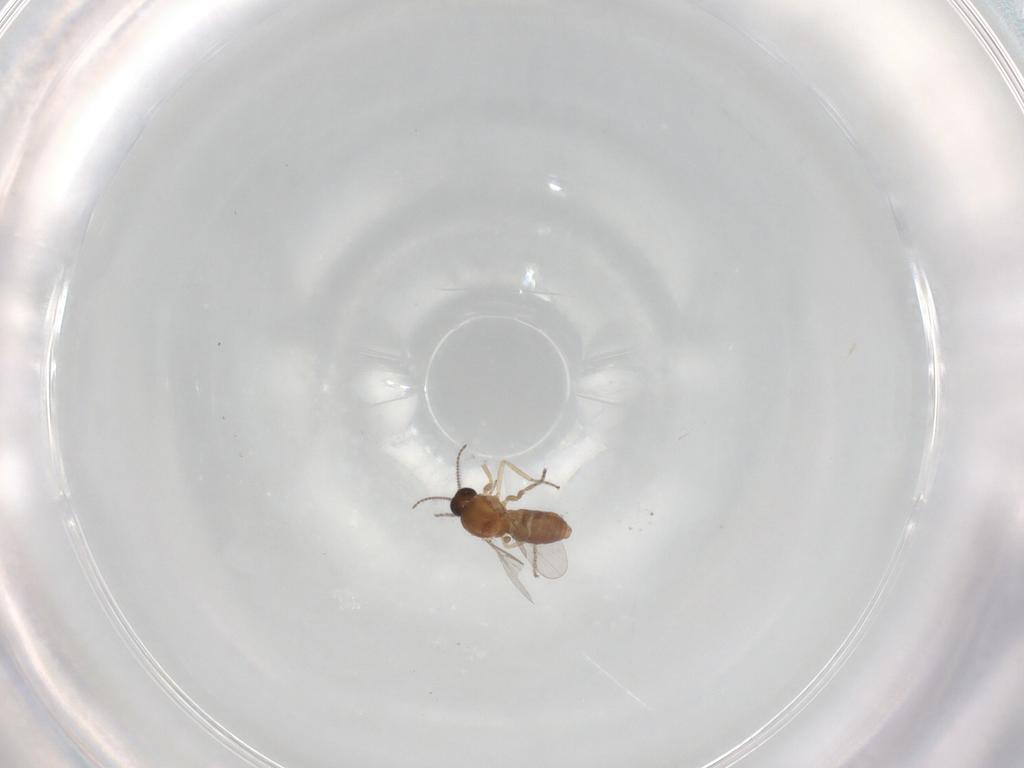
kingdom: Animalia
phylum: Arthropoda
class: Insecta
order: Diptera
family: Ceratopogonidae
